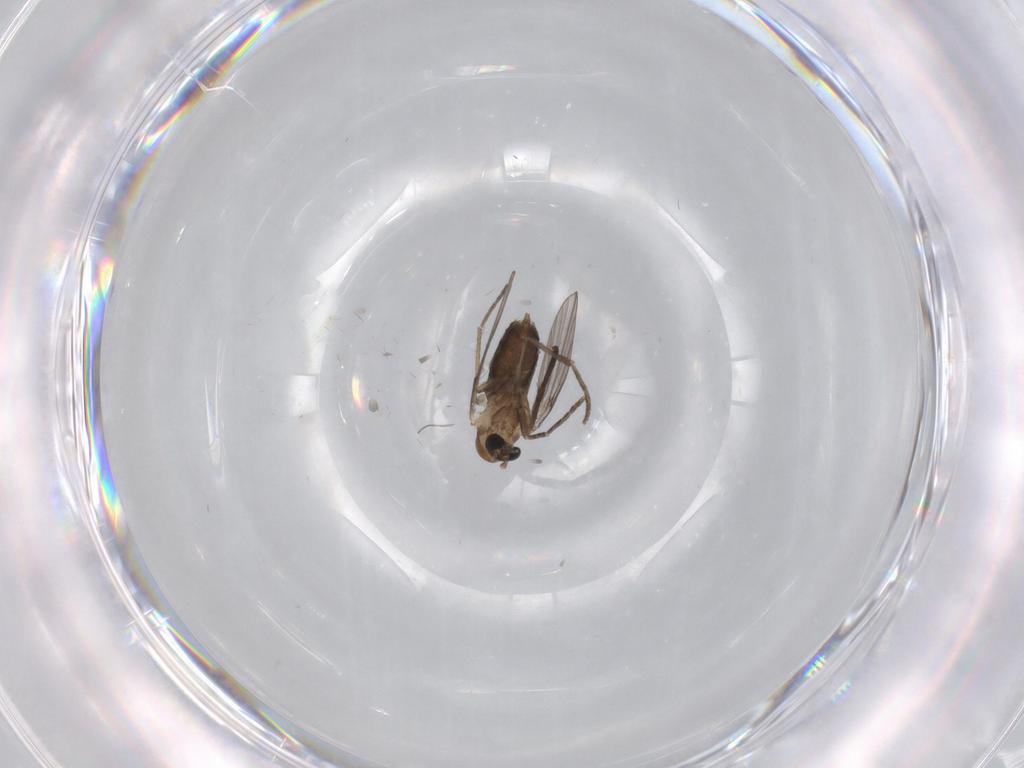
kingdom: Animalia
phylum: Arthropoda
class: Insecta
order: Diptera
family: Psychodidae
